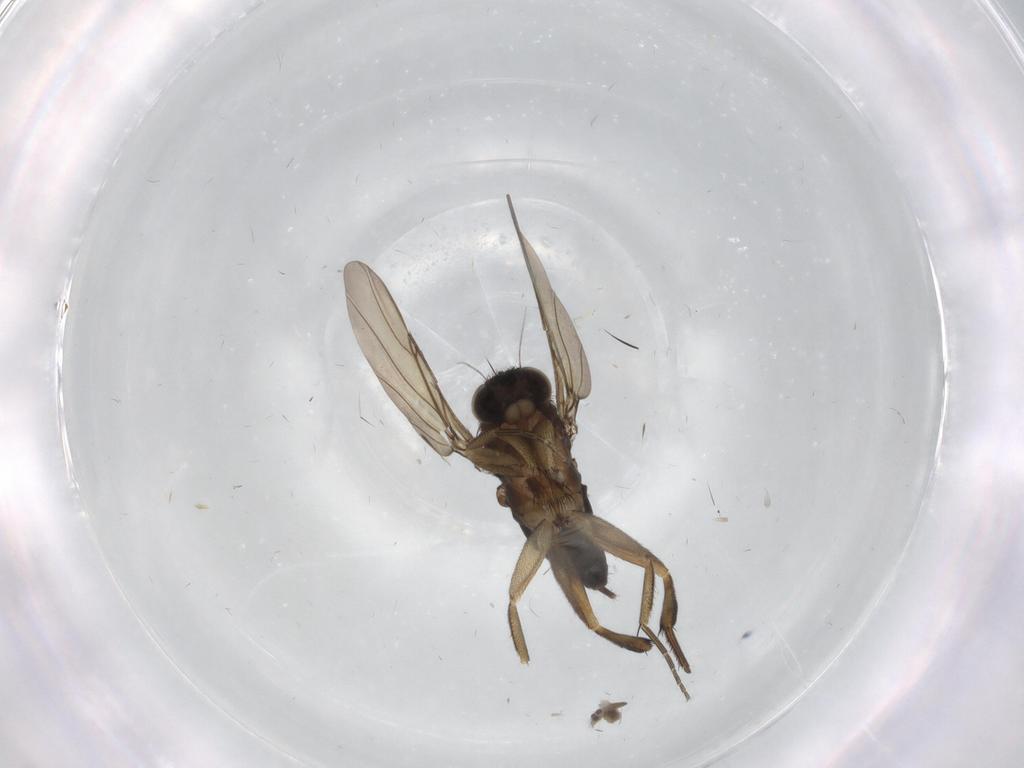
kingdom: Animalia
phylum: Arthropoda
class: Insecta
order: Diptera
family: Phoridae
